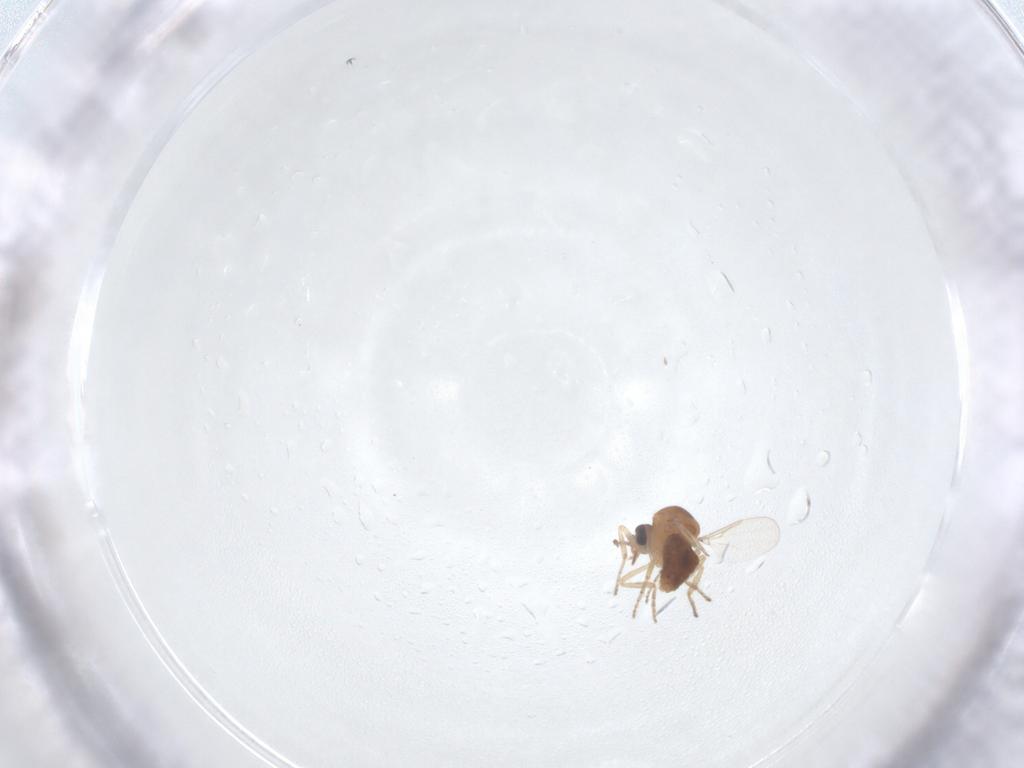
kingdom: Animalia
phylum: Arthropoda
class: Insecta
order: Diptera
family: Ceratopogonidae
